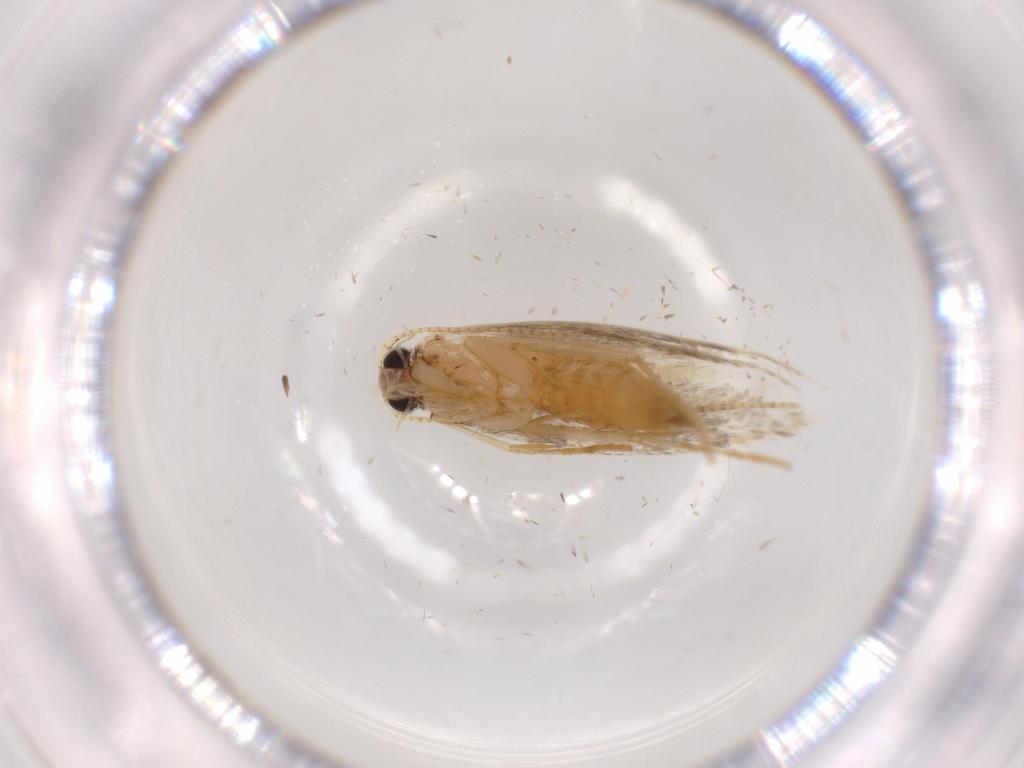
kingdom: Animalia
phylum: Arthropoda
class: Insecta
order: Lepidoptera
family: Tineidae
